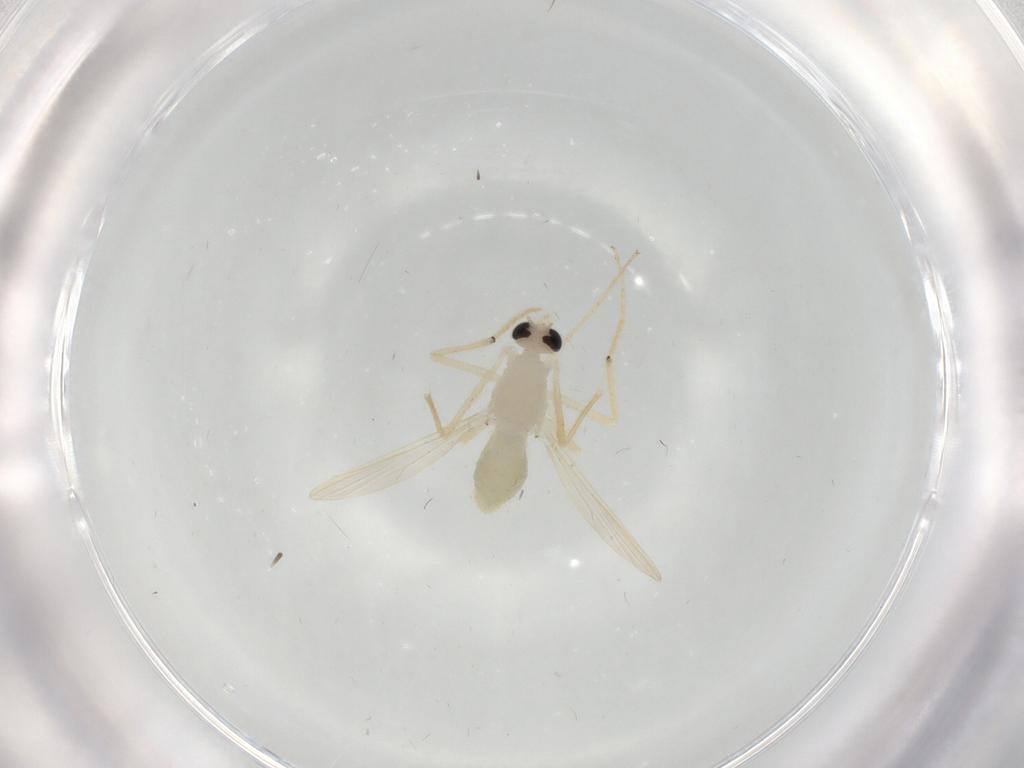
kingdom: Animalia
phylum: Arthropoda
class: Insecta
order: Diptera
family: Chironomidae
